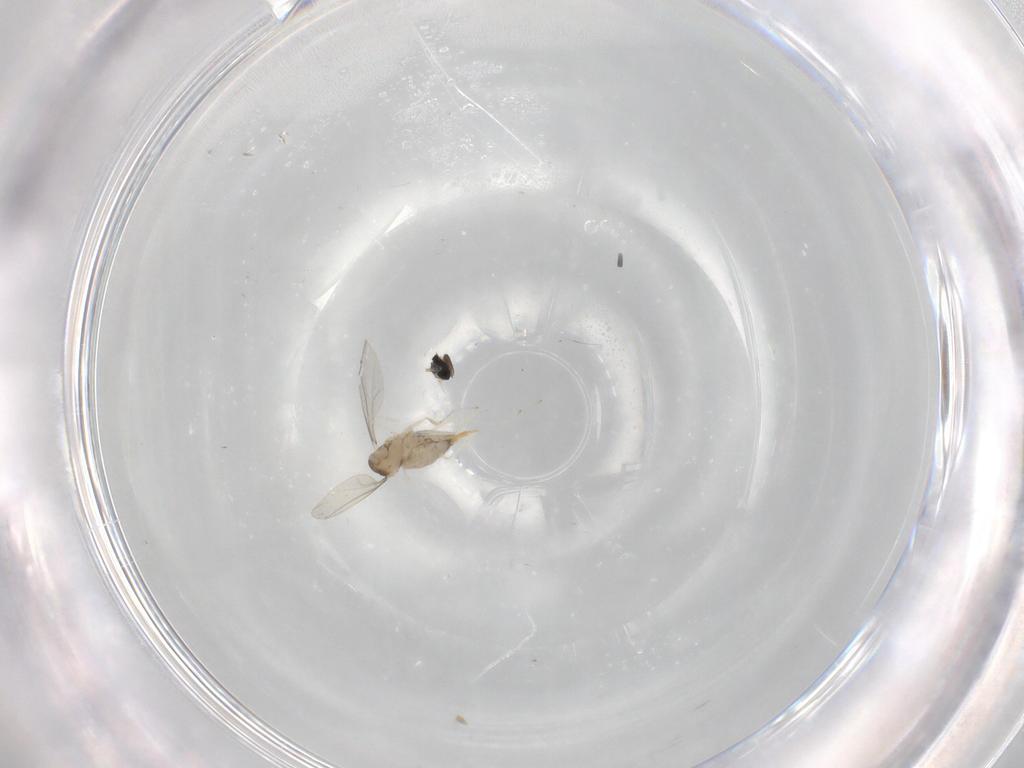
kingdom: Animalia
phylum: Arthropoda
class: Insecta
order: Diptera
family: Cecidomyiidae
